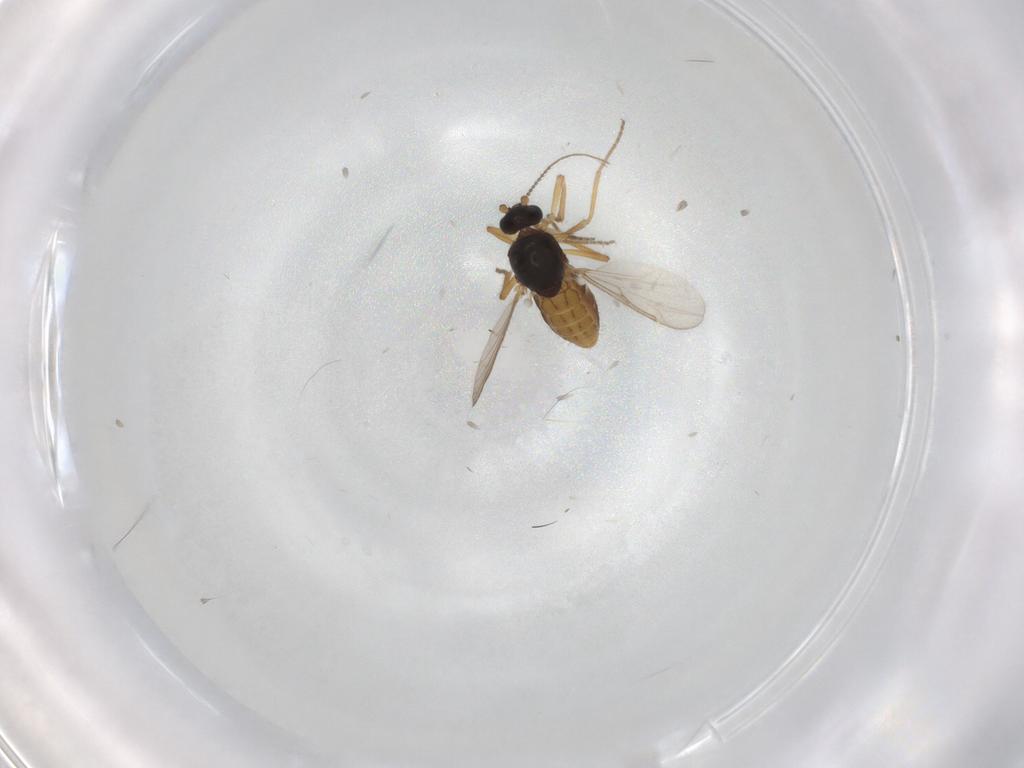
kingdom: Animalia
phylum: Arthropoda
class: Insecta
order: Diptera
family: Ceratopogonidae
